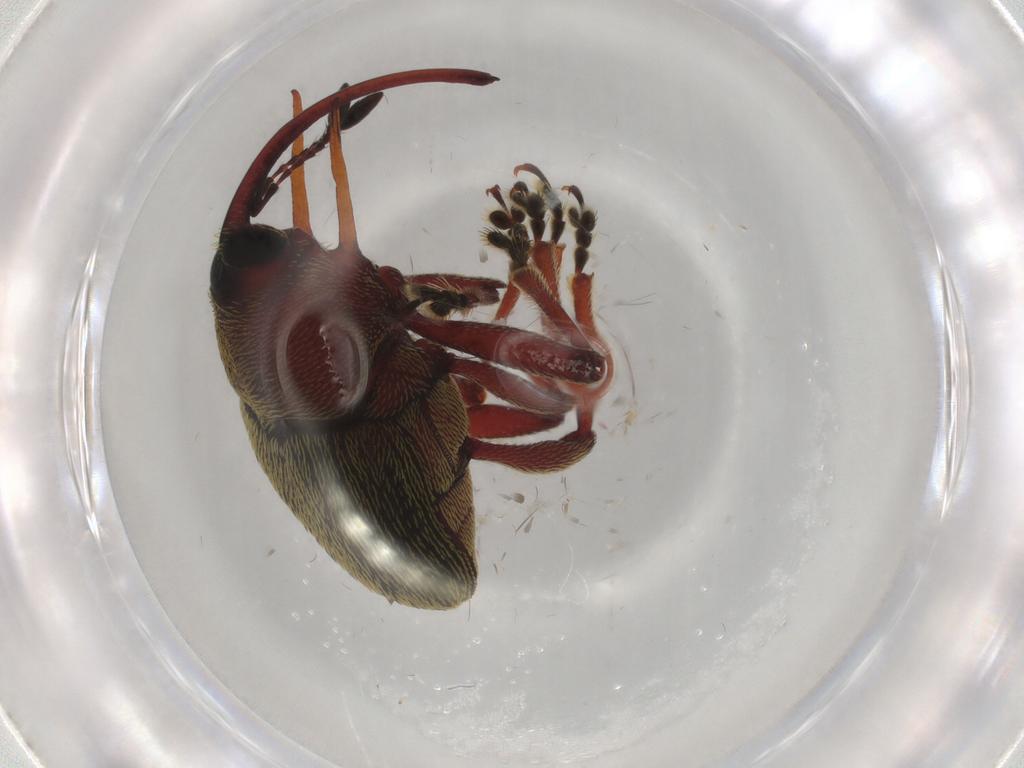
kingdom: Animalia
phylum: Arthropoda
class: Insecta
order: Coleoptera
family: Curculionidae
